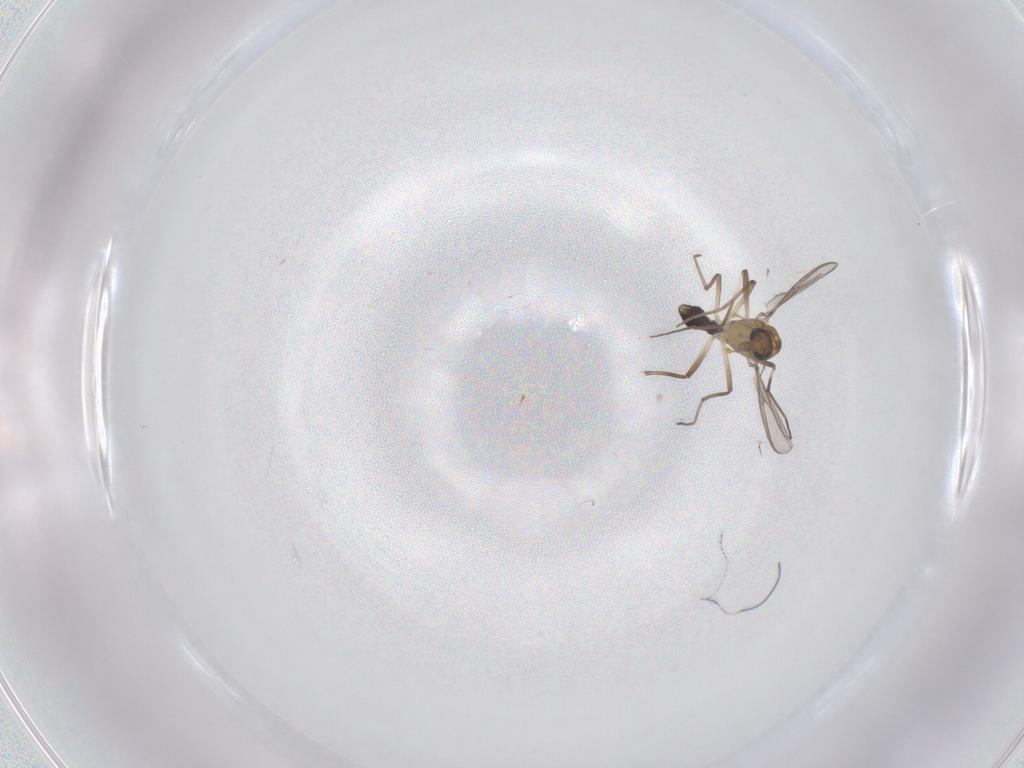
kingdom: Animalia
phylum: Arthropoda
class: Insecta
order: Diptera
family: Chironomidae
